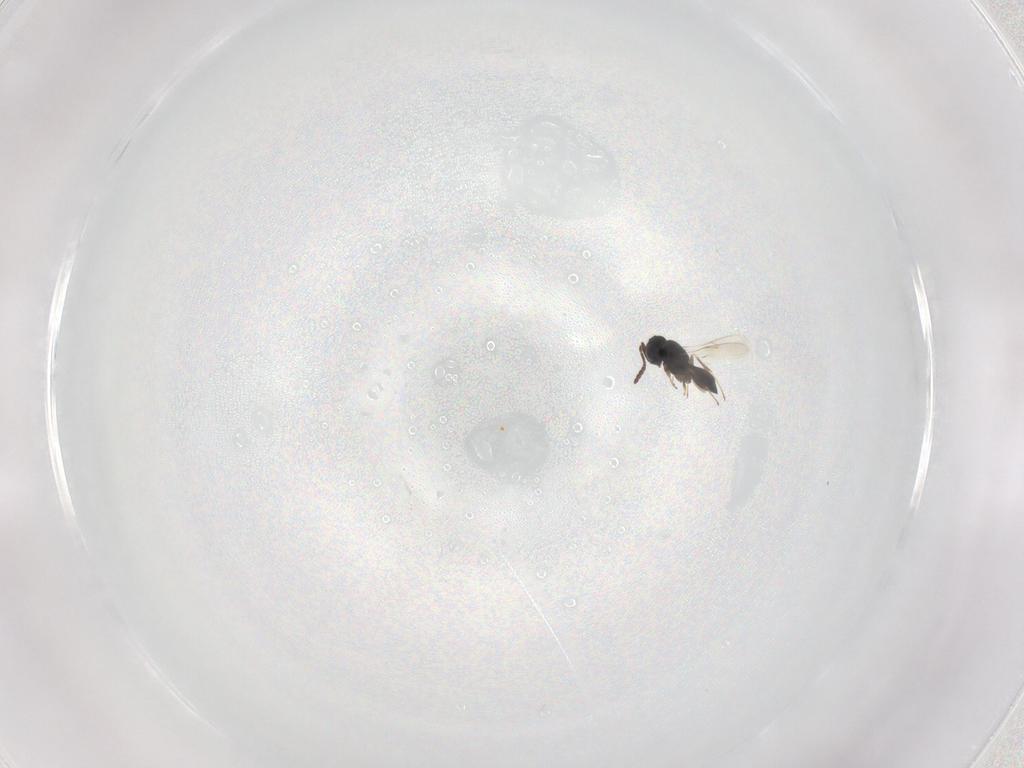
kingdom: Animalia
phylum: Arthropoda
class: Insecta
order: Hymenoptera
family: Scelionidae
